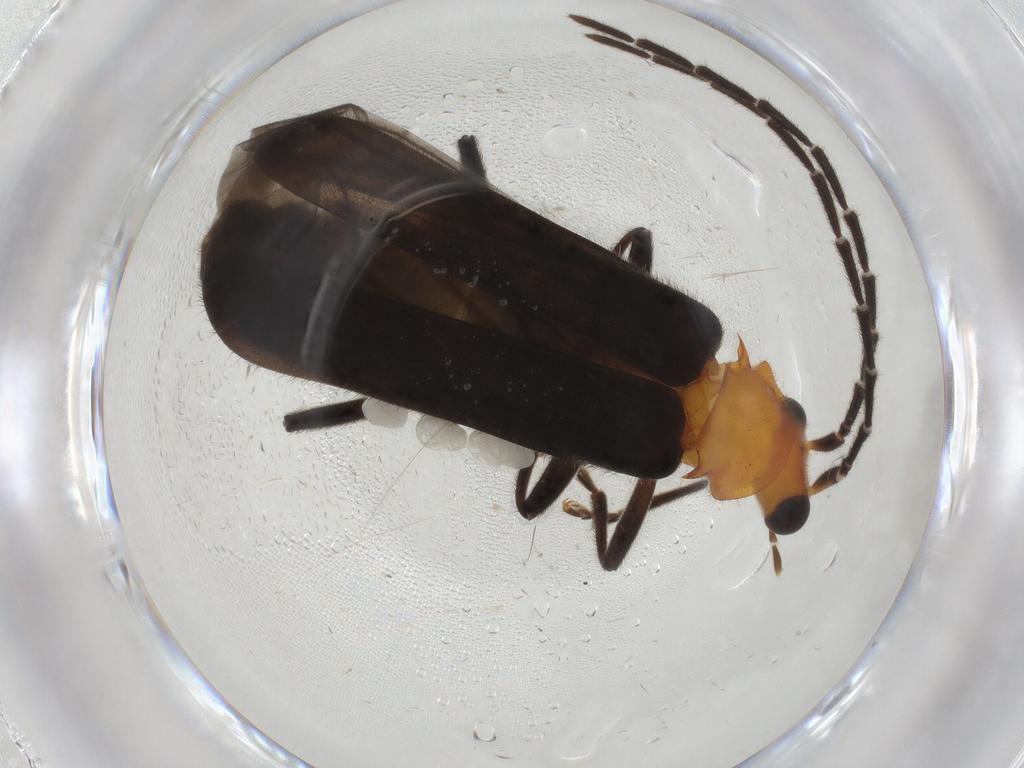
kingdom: Animalia
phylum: Arthropoda
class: Insecta
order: Coleoptera
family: Cantharidae
